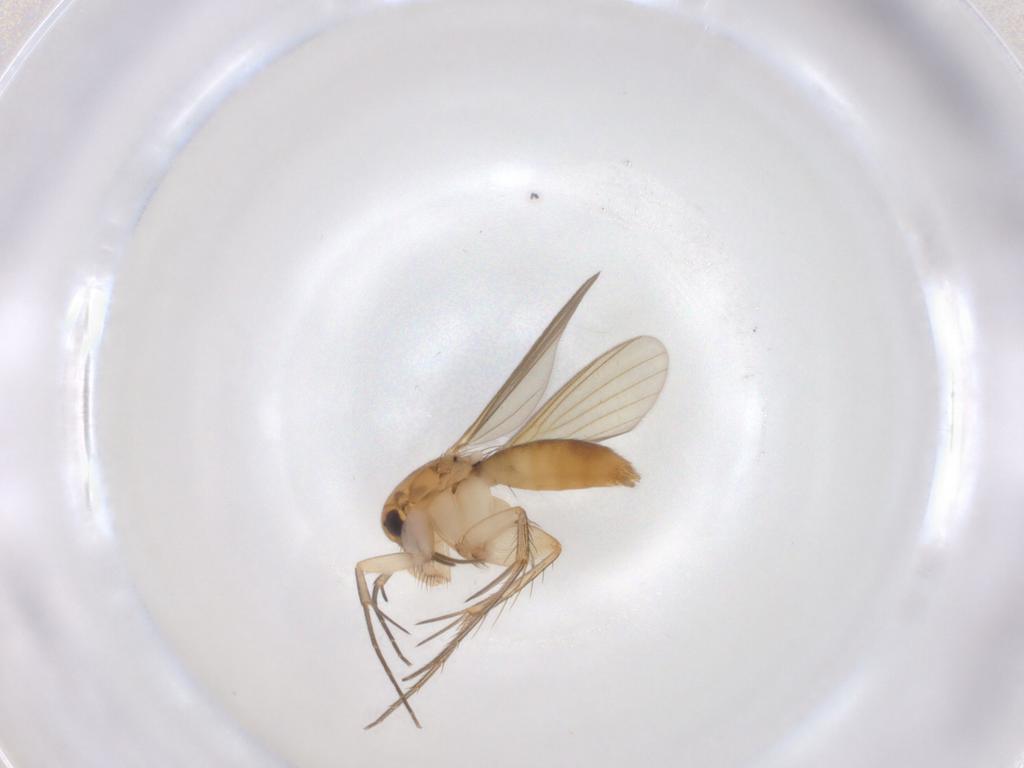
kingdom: Animalia
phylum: Arthropoda
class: Insecta
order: Diptera
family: Mycetophilidae
